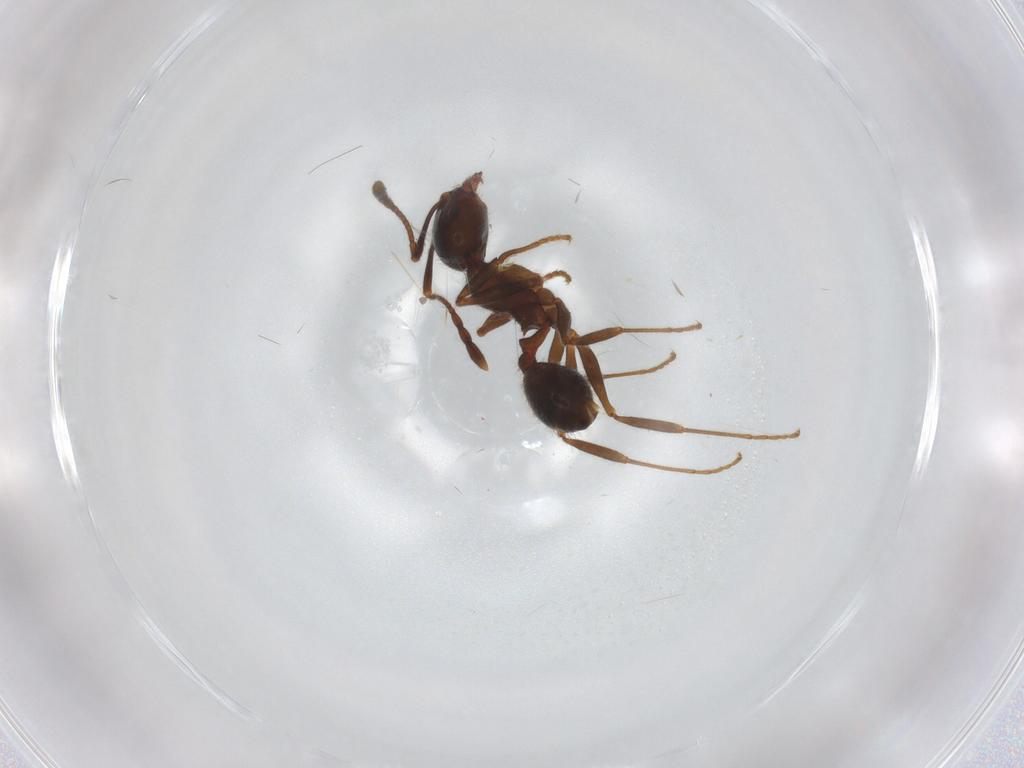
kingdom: Animalia
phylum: Arthropoda
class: Insecta
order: Hymenoptera
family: Formicidae
